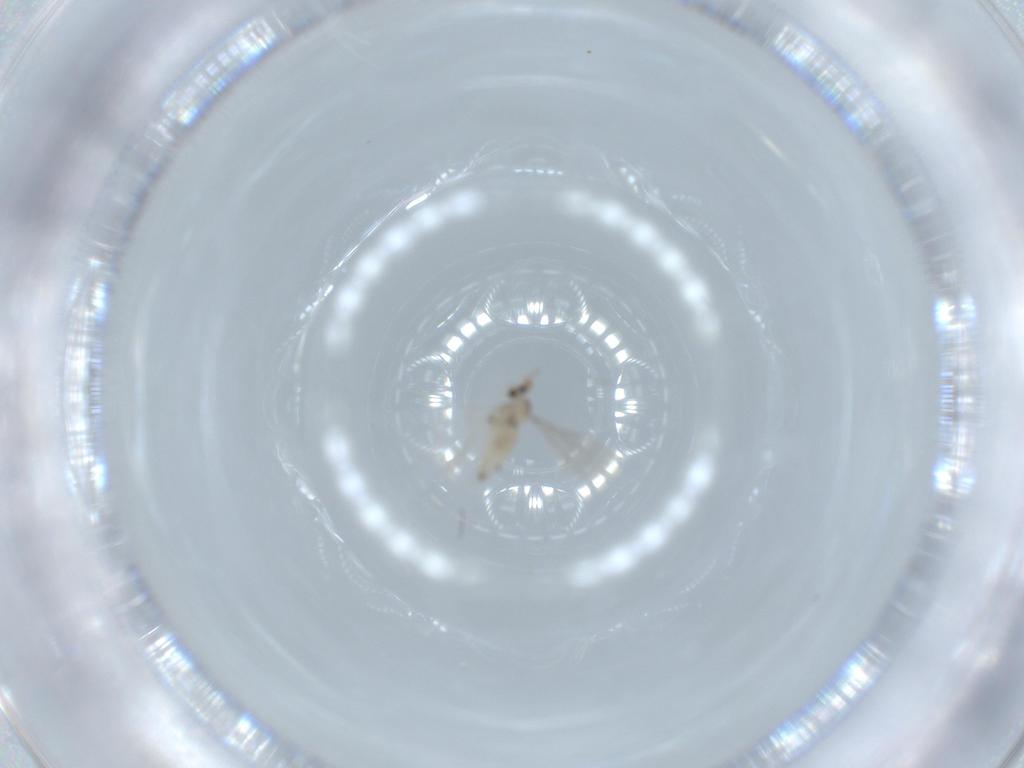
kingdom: Animalia
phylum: Arthropoda
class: Insecta
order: Diptera
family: Cecidomyiidae
